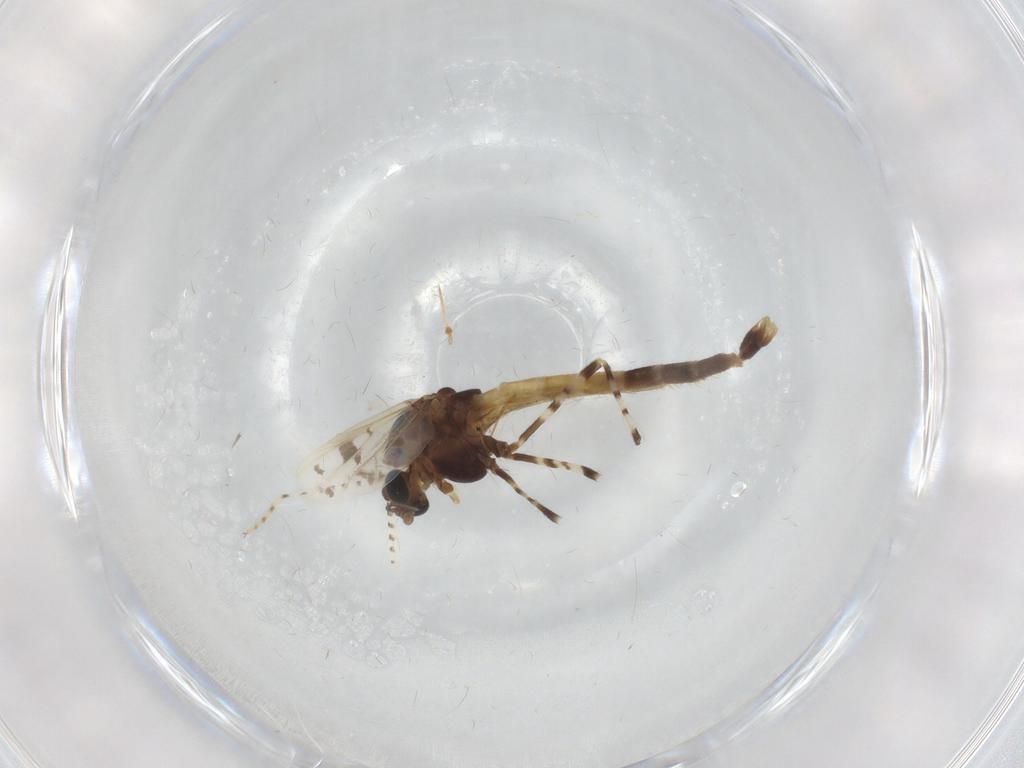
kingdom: Animalia
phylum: Arthropoda
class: Insecta
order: Diptera
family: Chironomidae
